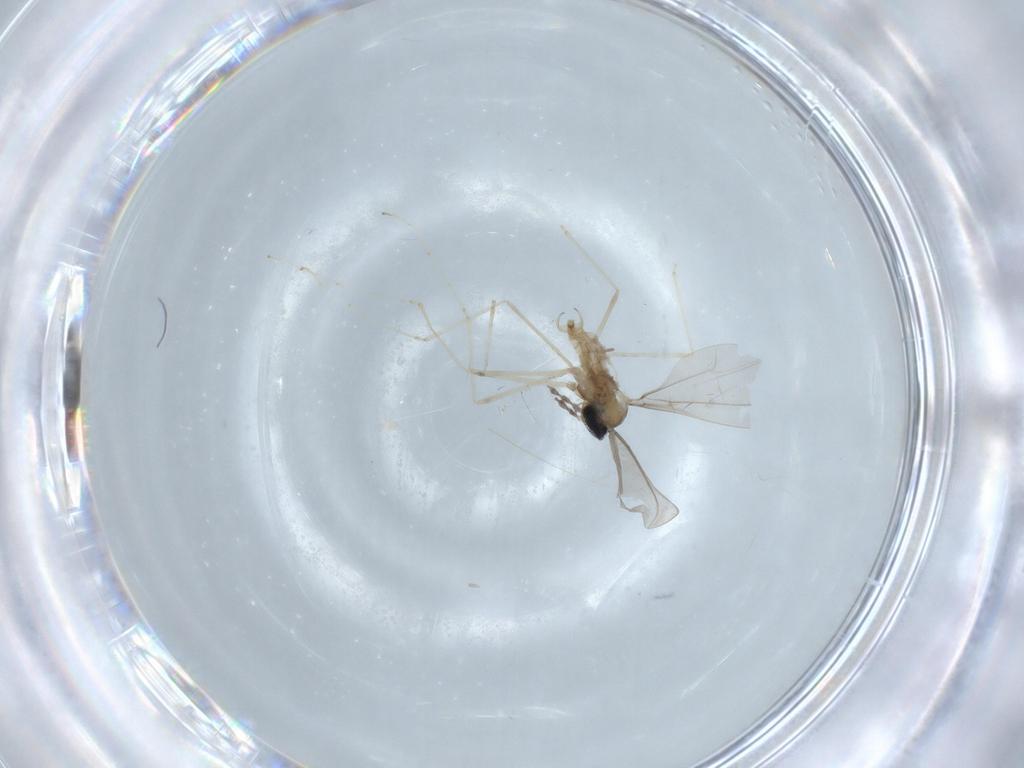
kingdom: Animalia
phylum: Arthropoda
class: Insecta
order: Diptera
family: Cecidomyiidae
